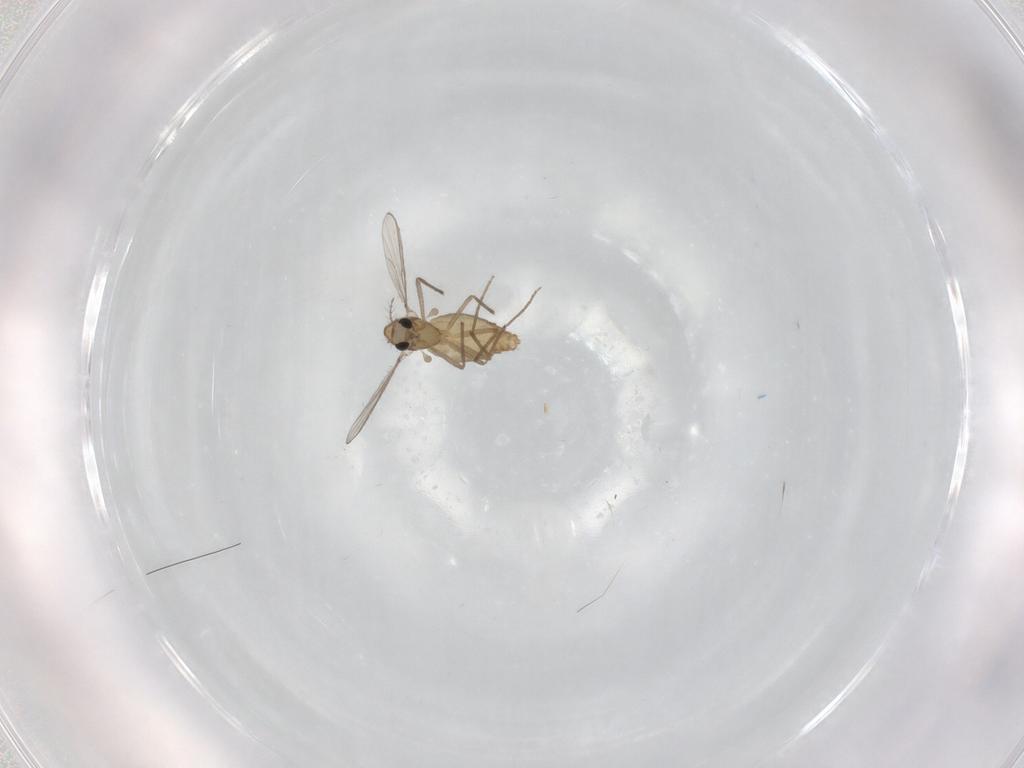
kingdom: Animalia
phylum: Arthropoda
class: Insecta
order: Diptera
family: Chironomidae
